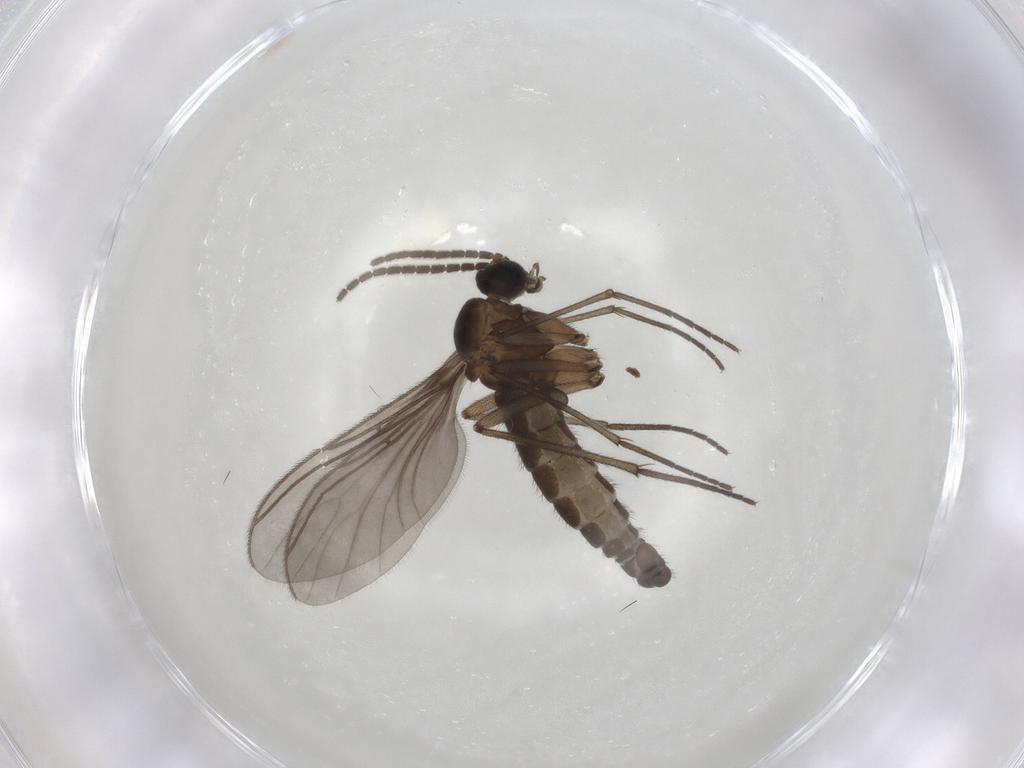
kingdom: Animalia
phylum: Arthropoda
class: Insecta
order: Diptera
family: Sciaridae
